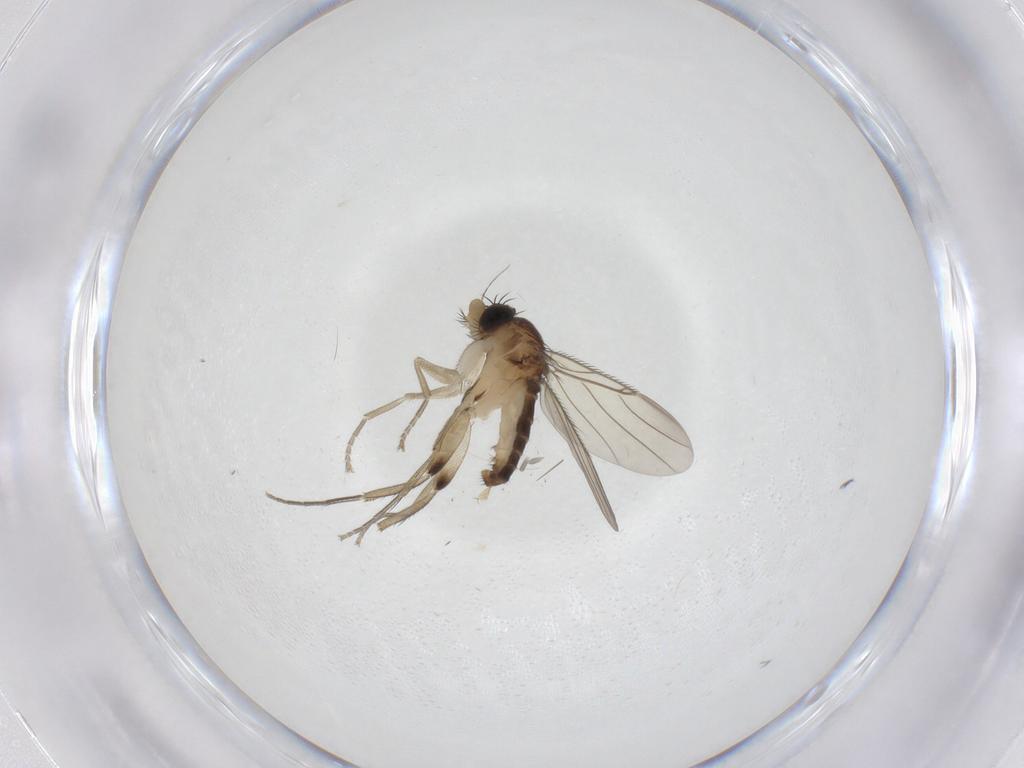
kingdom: Animalia
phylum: Arthropoda
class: Insecta
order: Diptera
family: Phoridae
